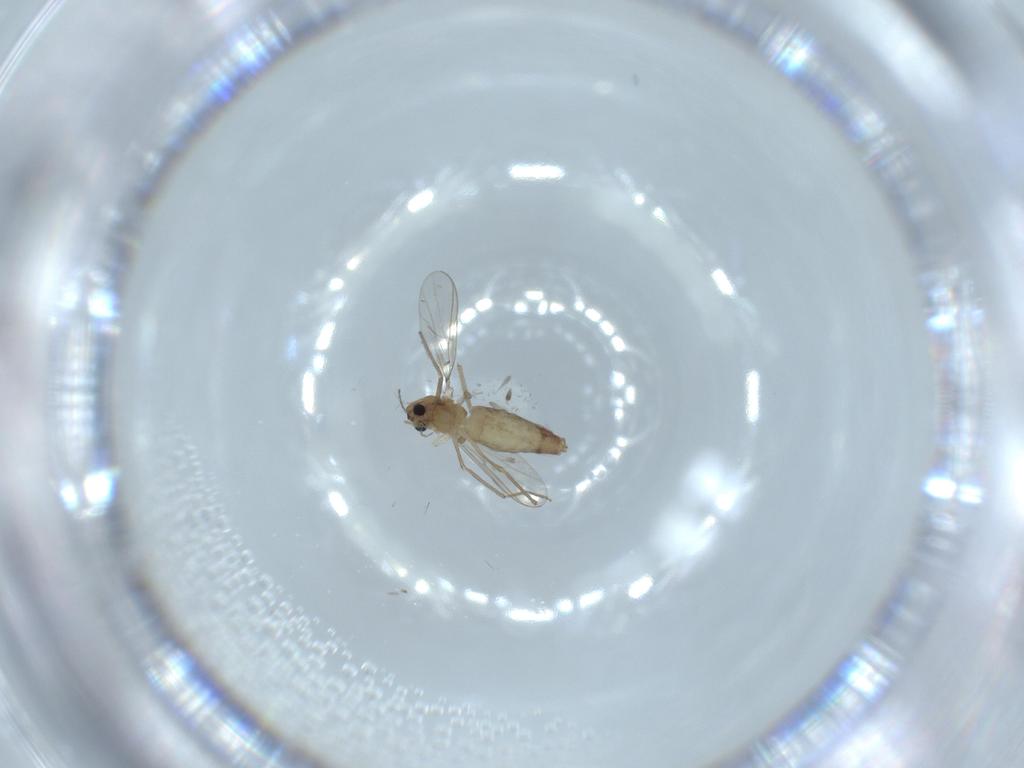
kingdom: Animalia
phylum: Arthropoda
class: Insecta
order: Diptera
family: Chironomidae
